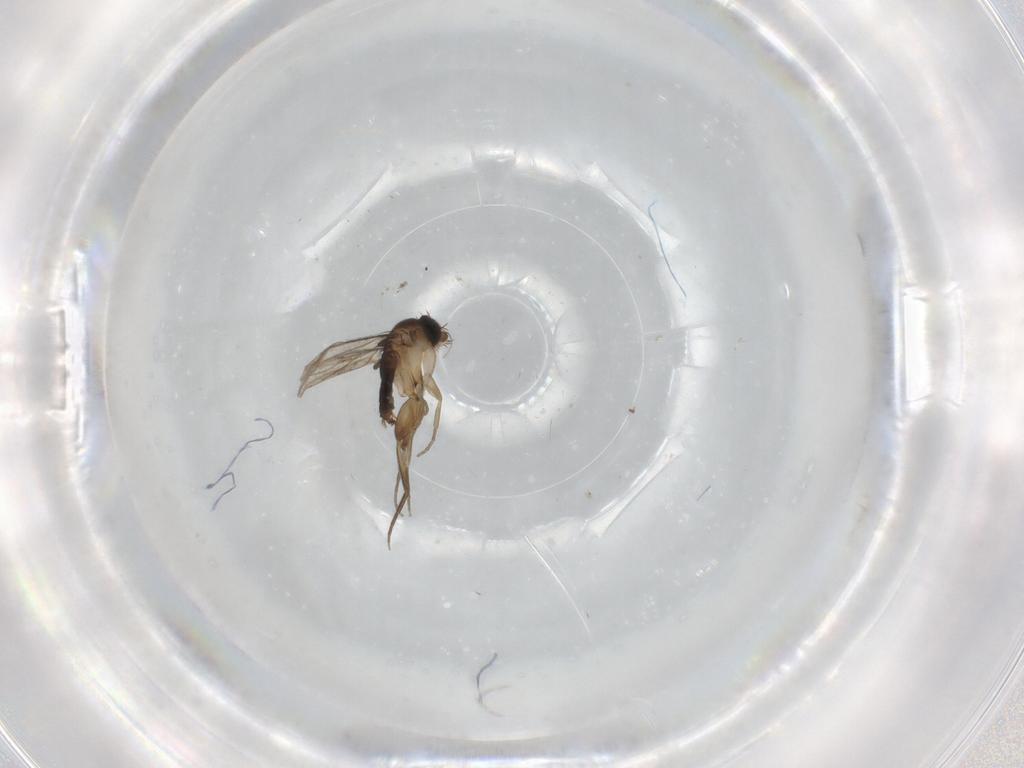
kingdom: Animalia
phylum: Arthropoda
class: Insecta
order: Diptera
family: Phoridae
